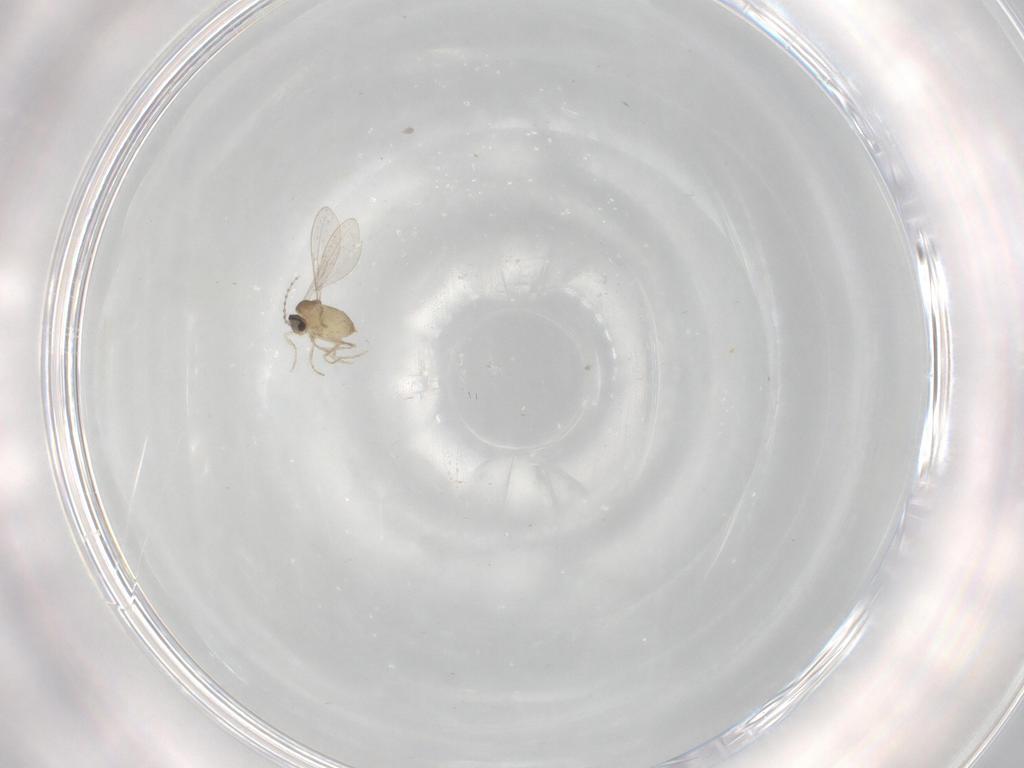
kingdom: Animalia
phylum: Arthropoda
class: Insecta
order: Diptera
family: Cecidomyiidae
